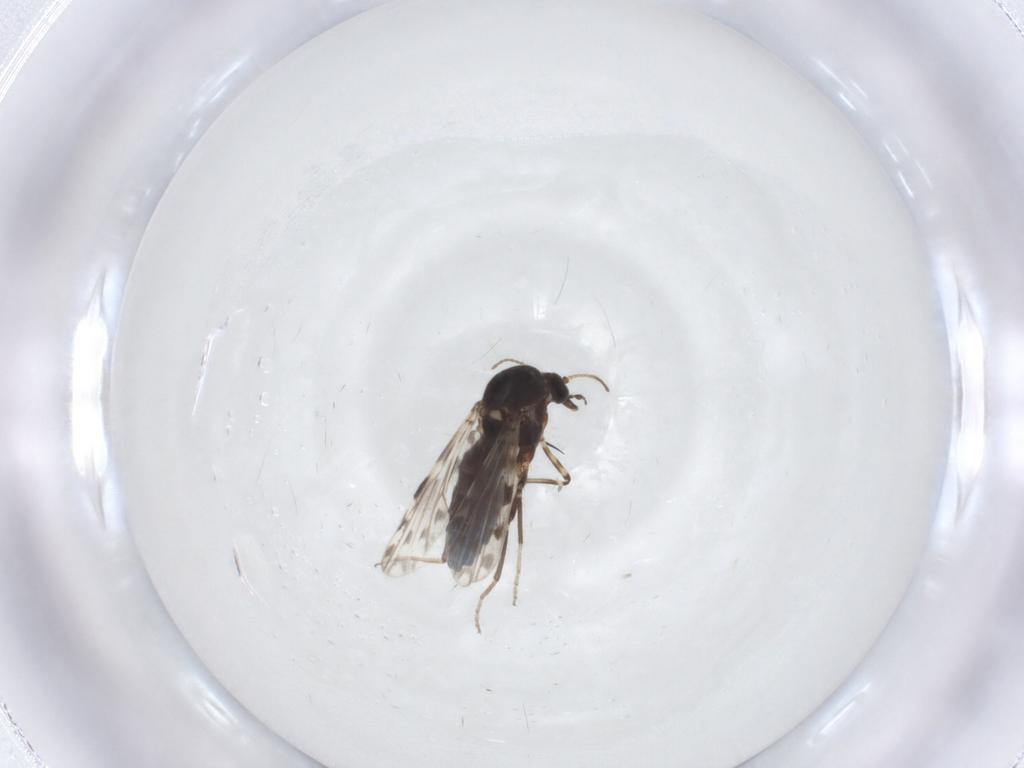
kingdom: Animalia
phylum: Arthropoda
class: Insecta
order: Diptera
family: Ceratopogonidae
